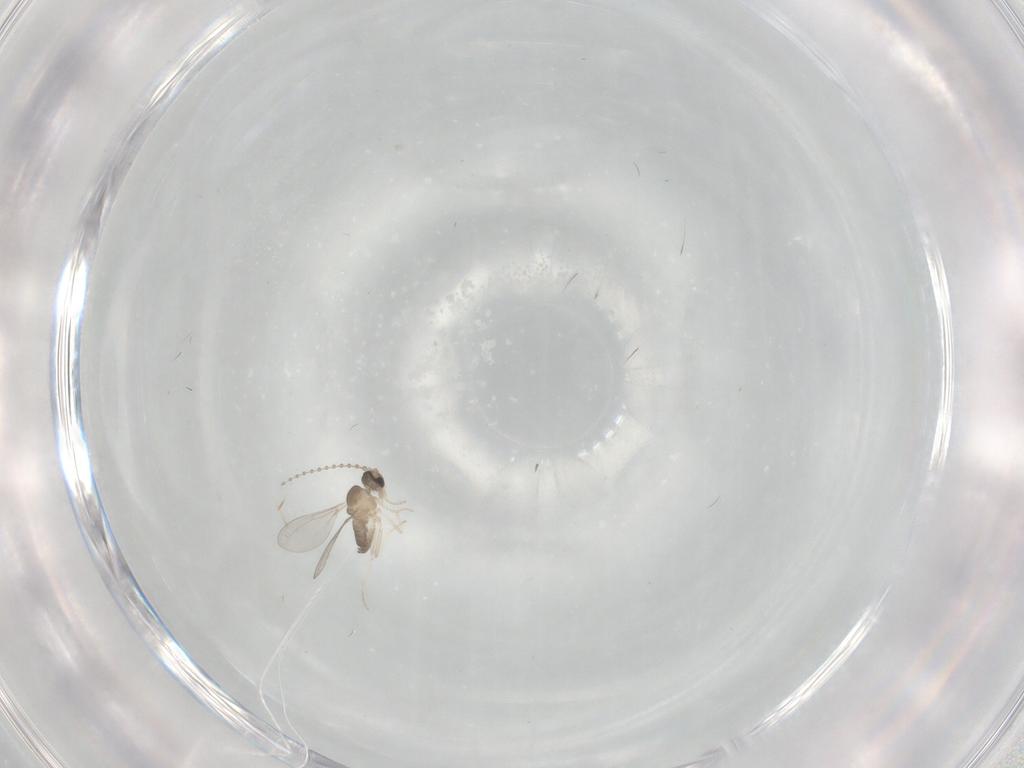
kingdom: Animalia
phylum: Arthropoda
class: Insecta
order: Diptera
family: Cecidomyiidae
